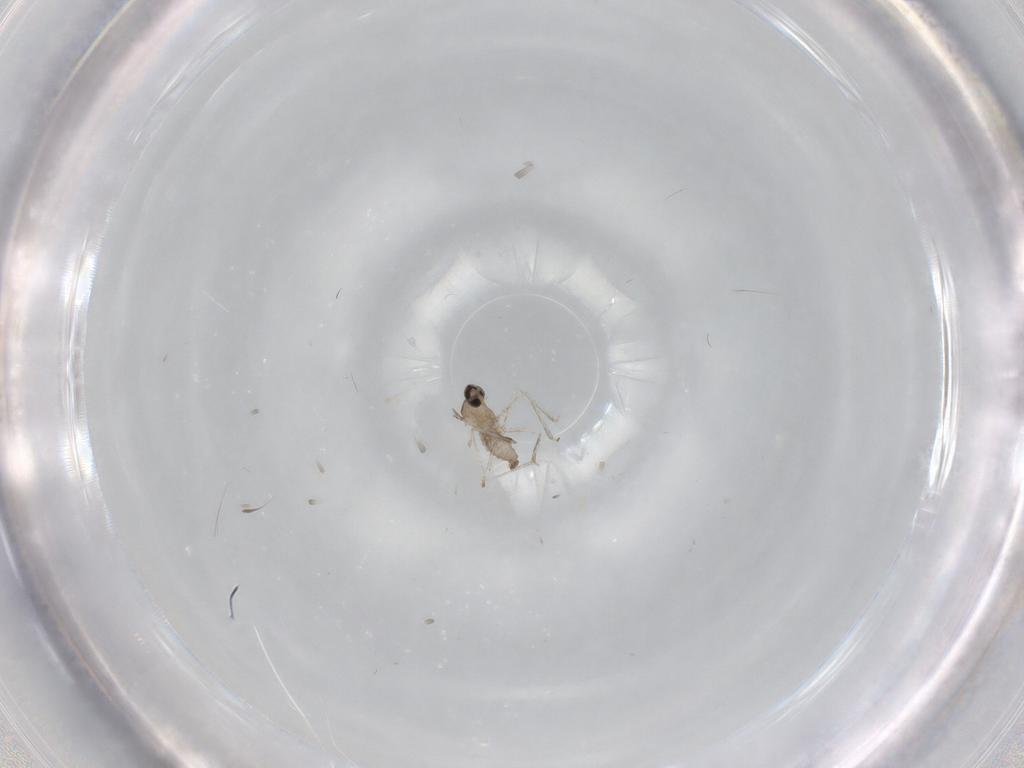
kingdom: Animalia
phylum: Arthropoda
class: Insecta
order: Diptera
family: Cecidomyiidae
